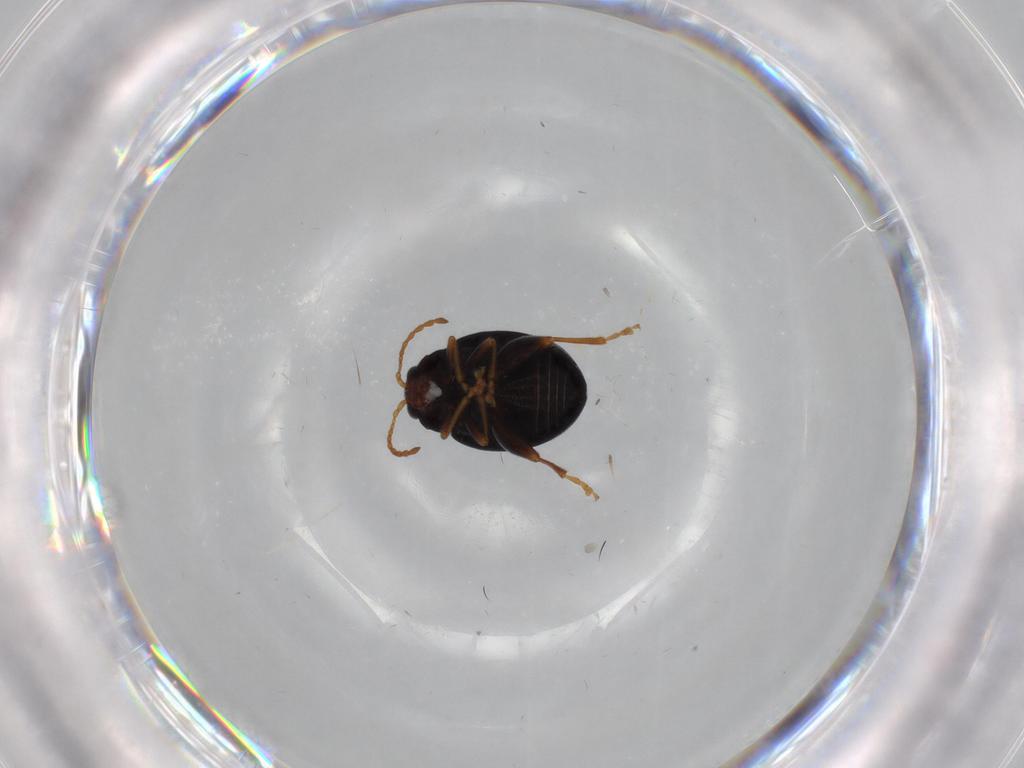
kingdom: Animalia
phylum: Arthropoda
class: Insecta
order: Coleoptera
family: Chrysomelidae
